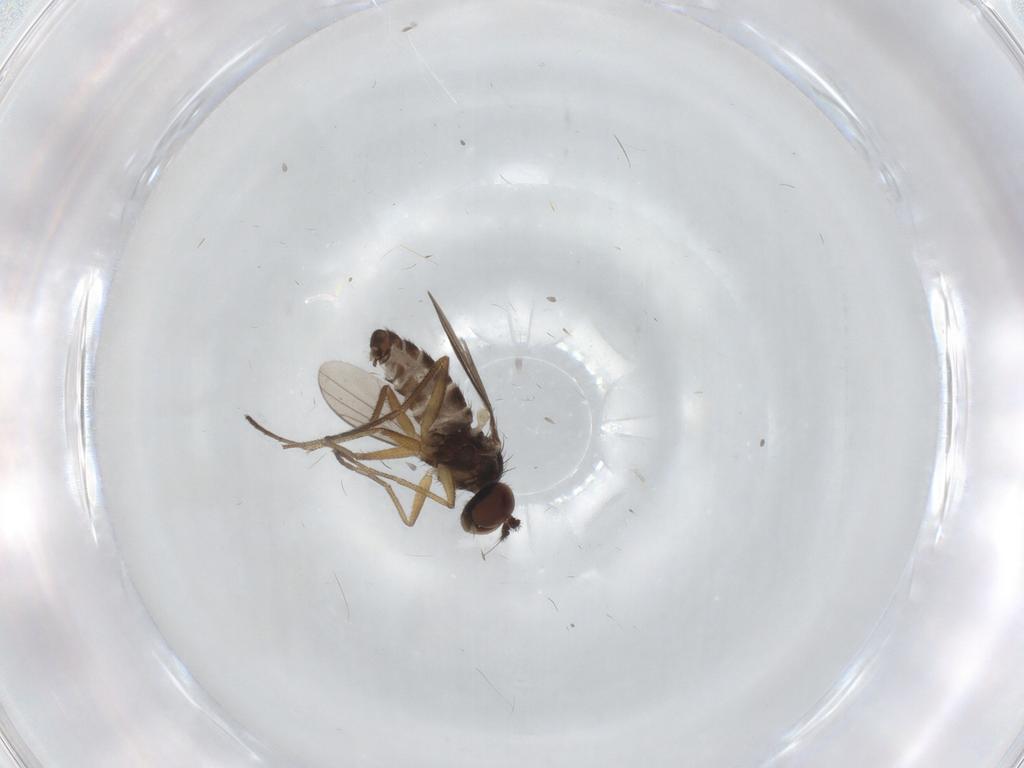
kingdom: Animalia
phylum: Arthropoda
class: Insecta
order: Diptera
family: Dolichopodidae
